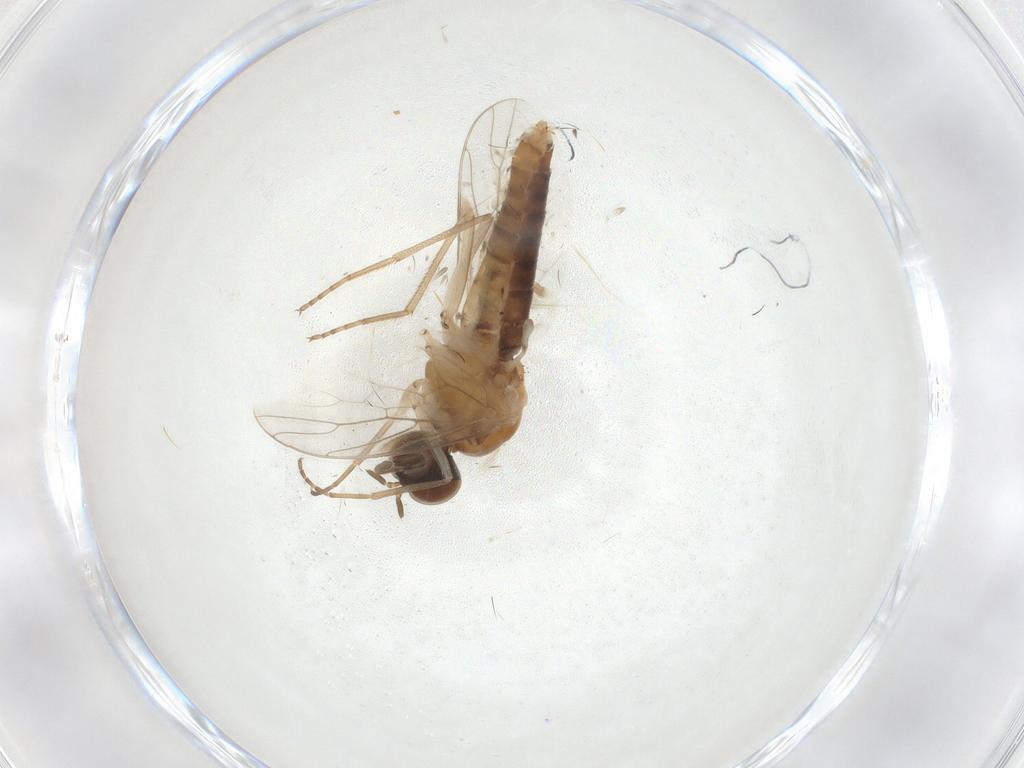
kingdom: Animalia
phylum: Arthropoda
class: Insecta
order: Diptera
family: Psychodidae
